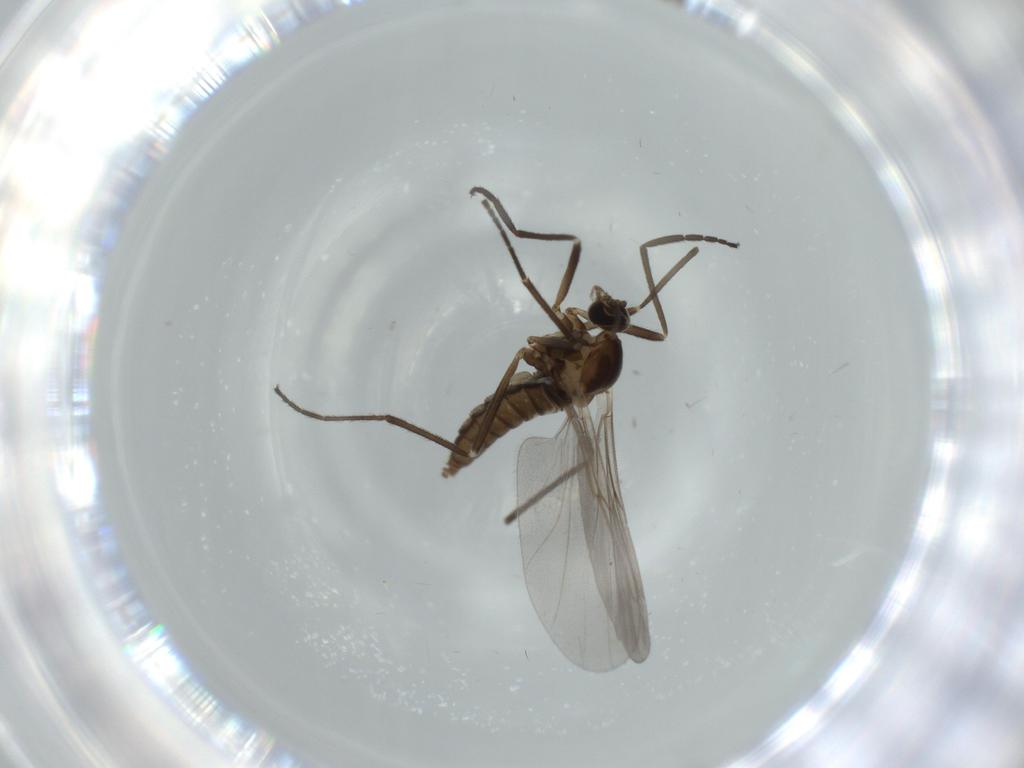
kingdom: Animalia
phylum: Arthropoda
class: Insecta
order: Diptera
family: Cecidomyiidae
